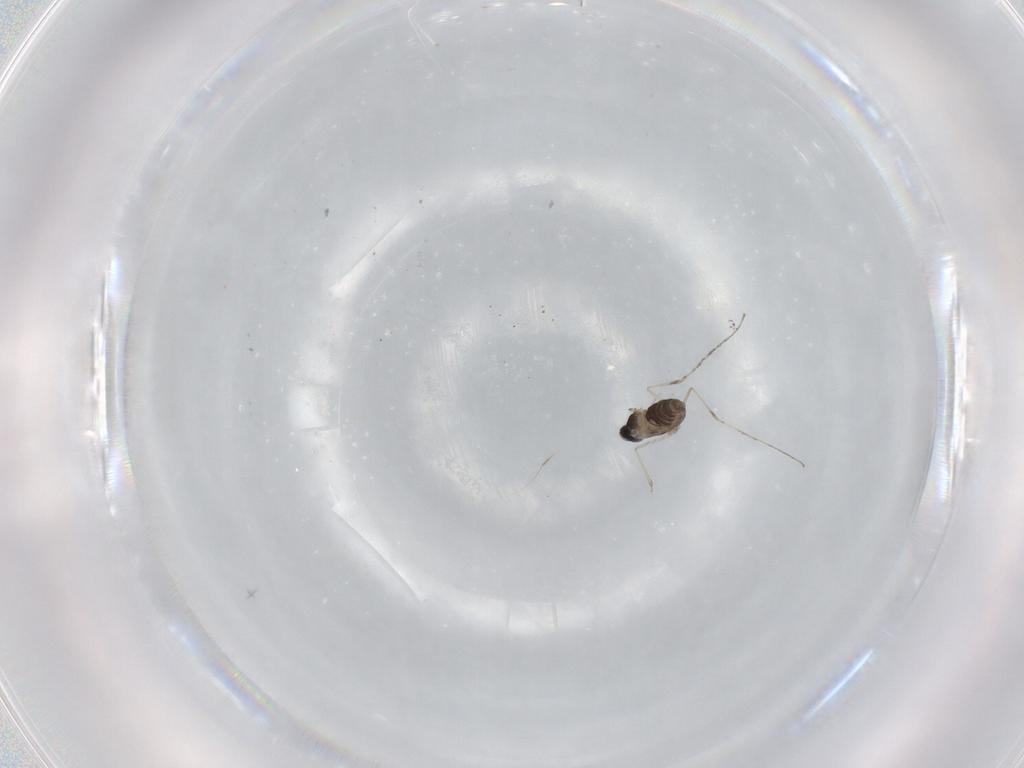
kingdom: Animalia
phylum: Arthropoda
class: Insecta
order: Diptera
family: Cecidomyiidae
